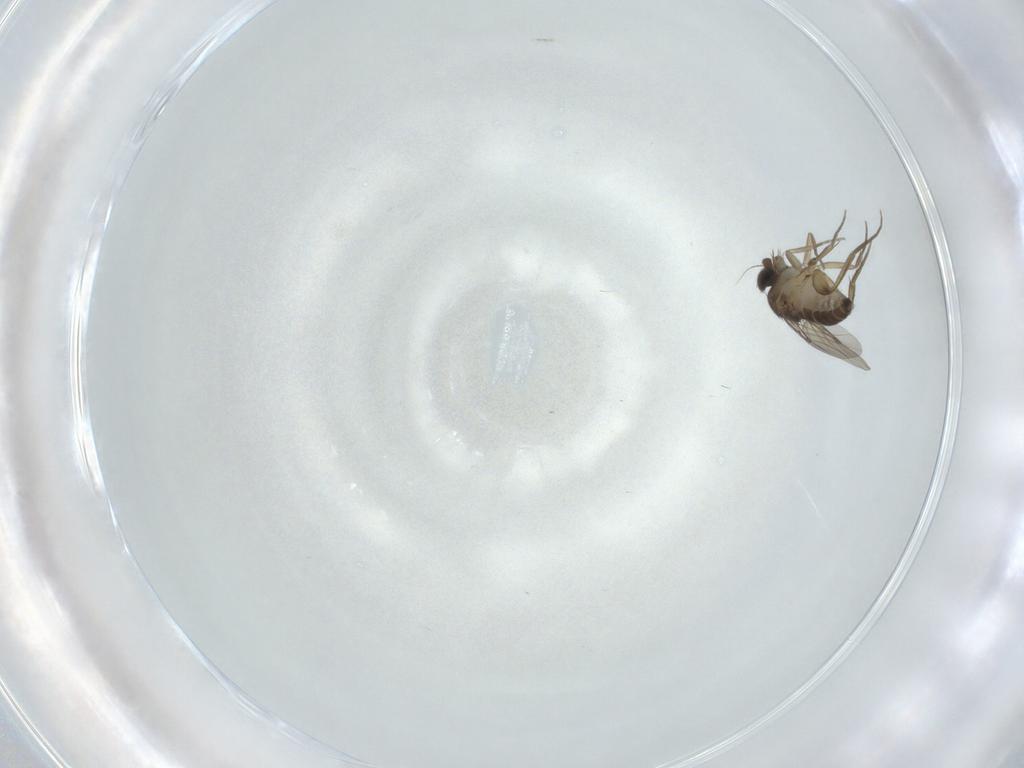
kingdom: Animalia
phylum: Arthropoda
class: Insecta
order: Diptera
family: Phoridae
